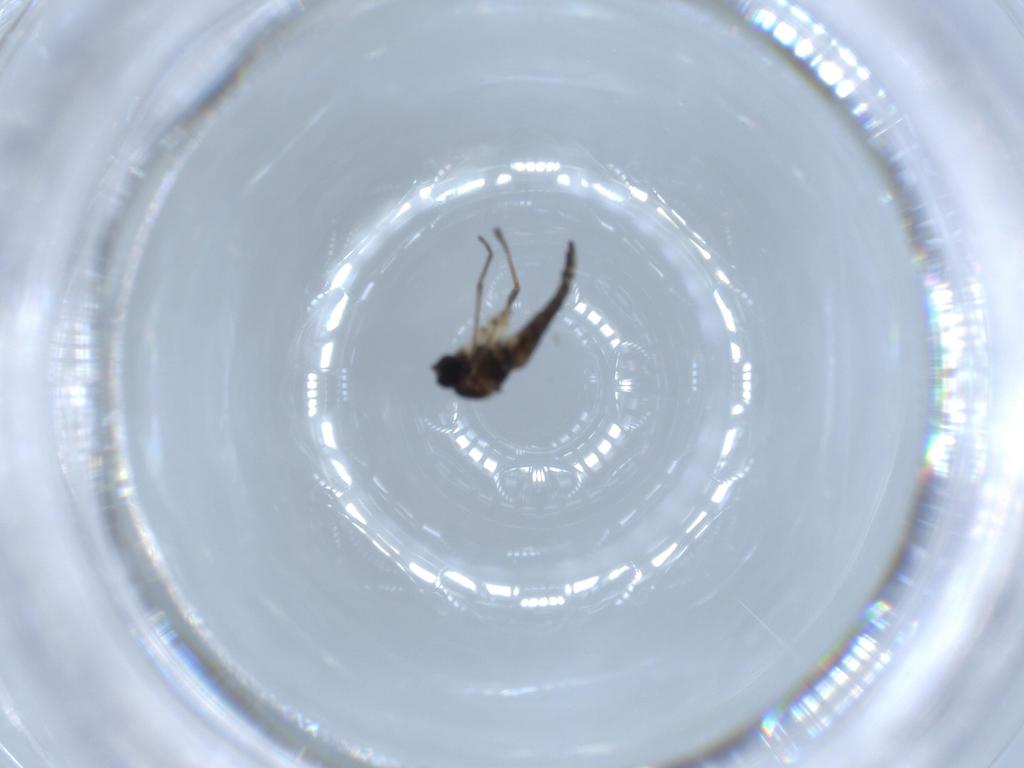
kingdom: Animalia
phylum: Arthropoda
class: Insecta
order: Diptera
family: Sciaridae
